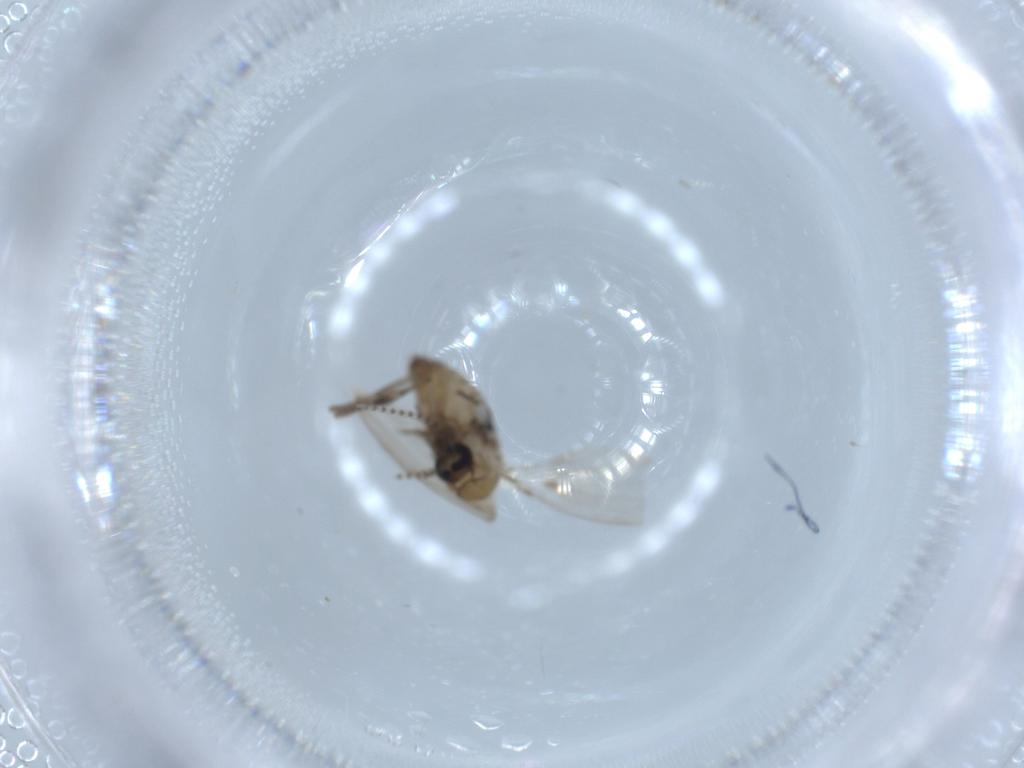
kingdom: Animalia
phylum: Arthropoda
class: Insecta
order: Diptera
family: Psychodidae
